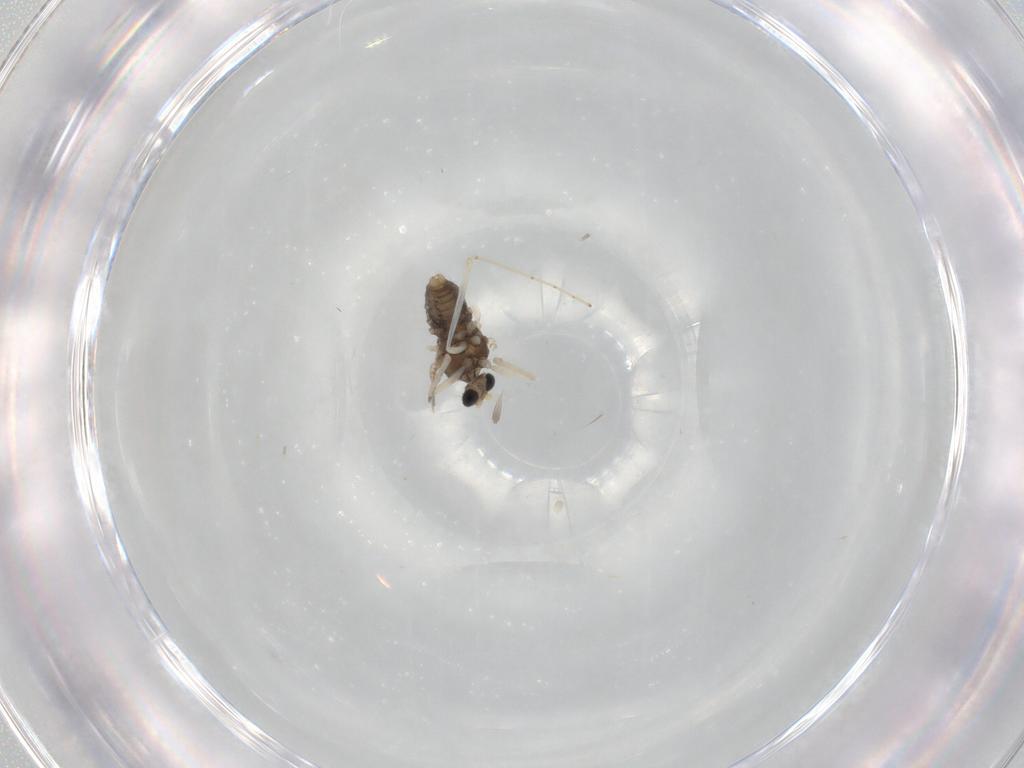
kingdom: Animalia
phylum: Arthropoda
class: Insecta
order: Diptera
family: Cecidomyiidae
